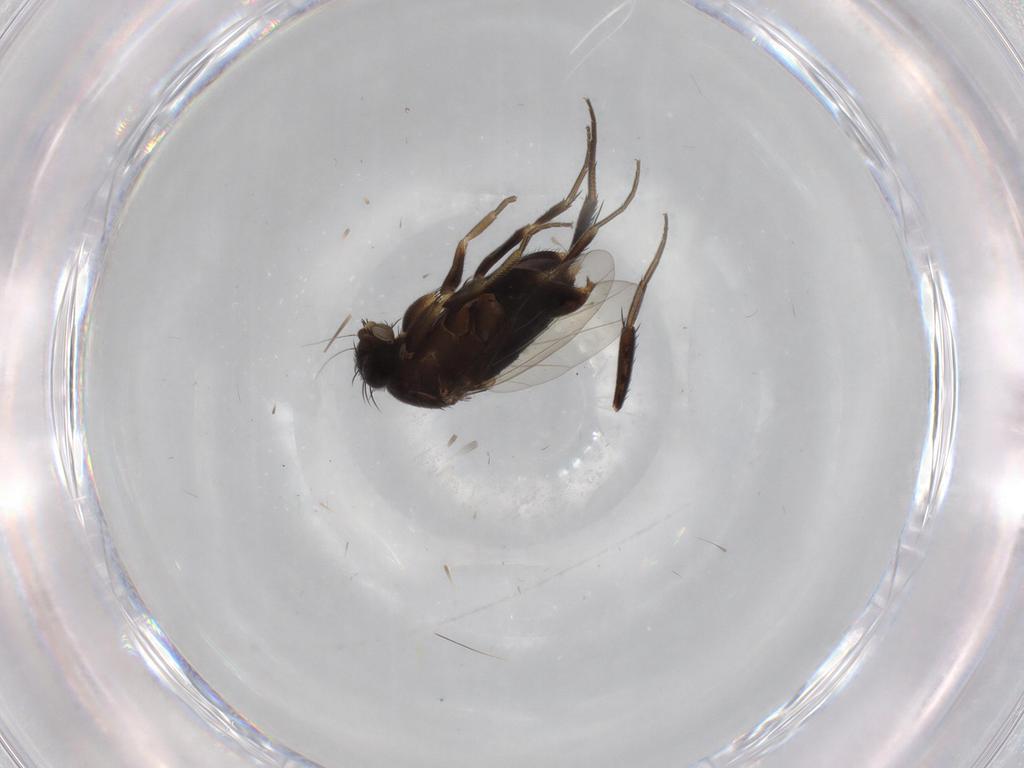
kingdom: Animalia
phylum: Arthropoda
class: Insecta
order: Diptera
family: Phoridae
